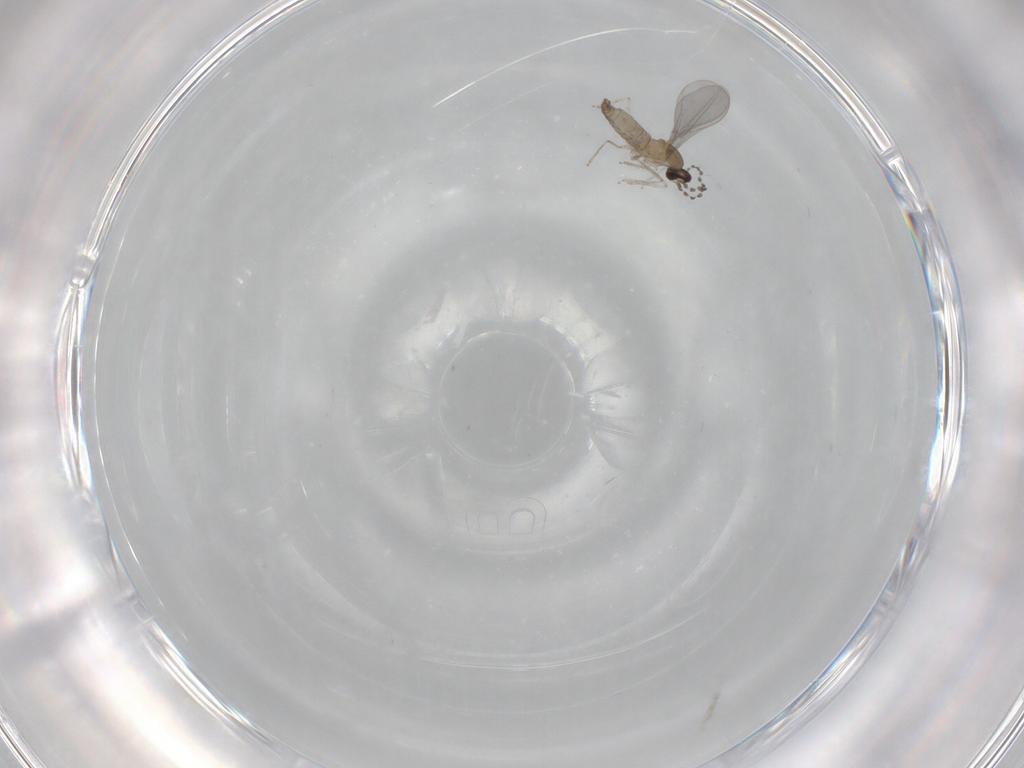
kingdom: Animalia
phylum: Arthropoda
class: Insecta
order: Diptera
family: Cecidomyiidae
